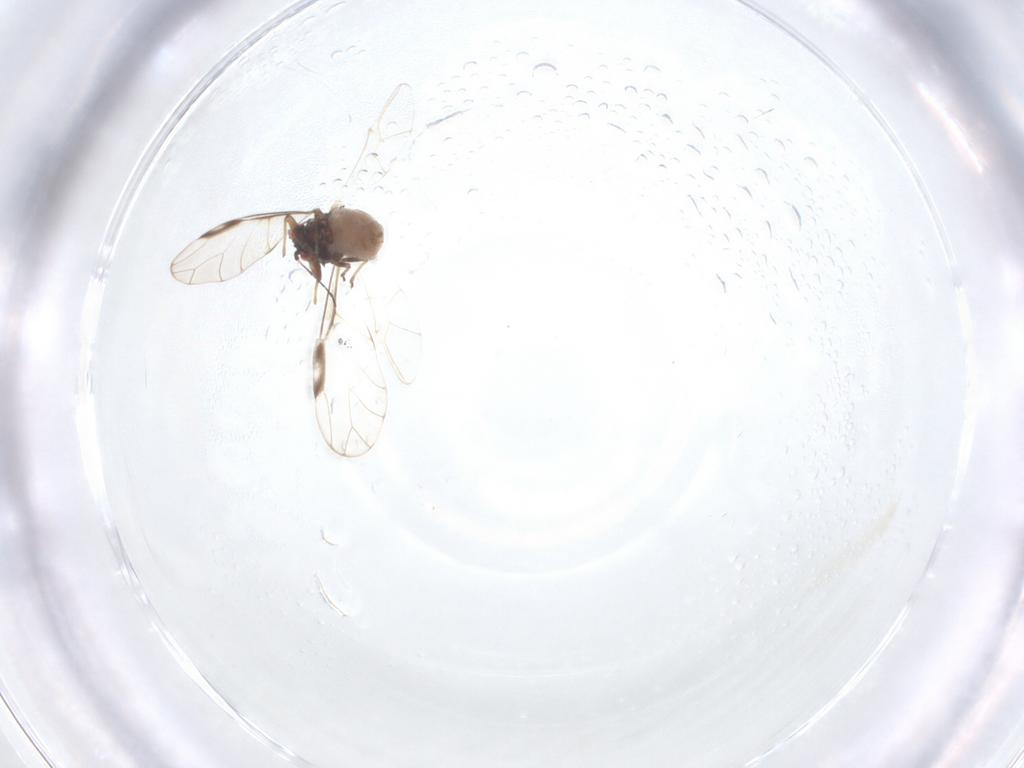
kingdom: Animalia
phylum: Arthropoda
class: Insecta
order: Hemiptera
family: Aphididae
